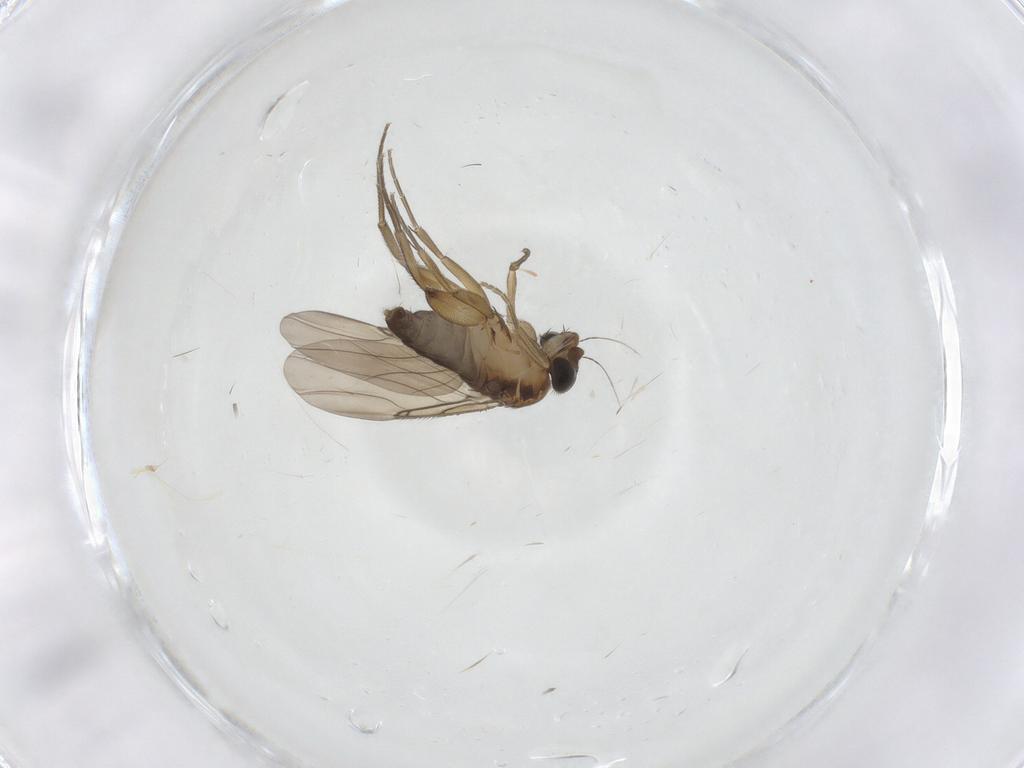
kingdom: Animalia
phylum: Arthropoda
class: Insecta
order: Diptera
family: Phoridae
